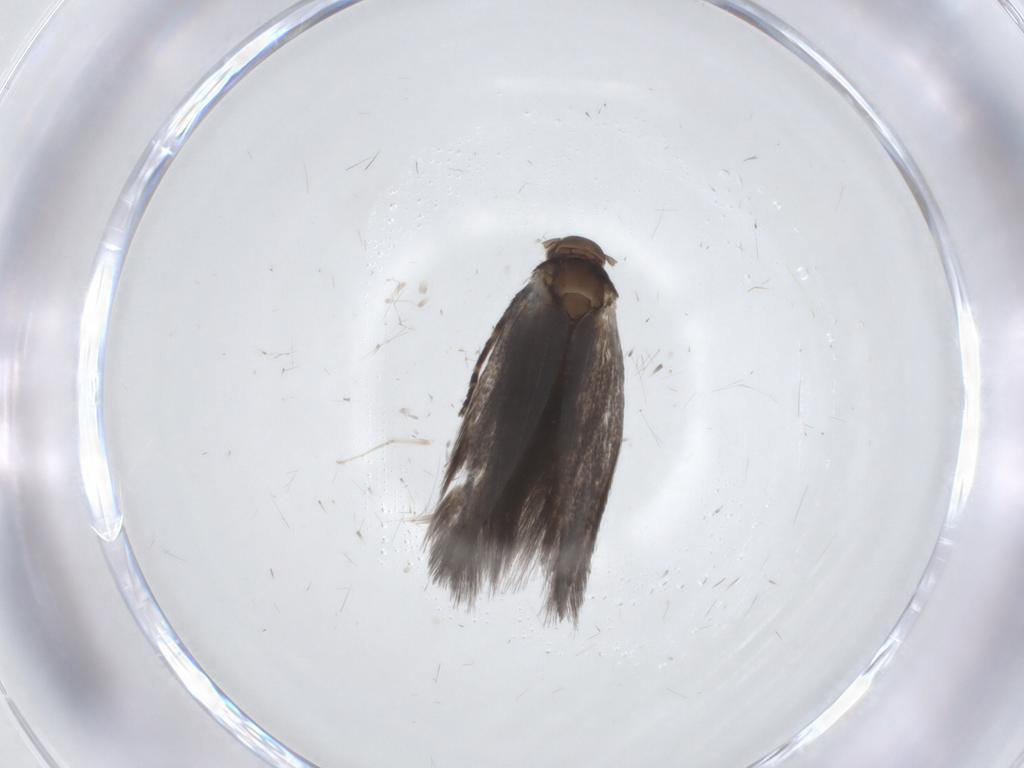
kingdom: Animalia
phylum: Arthropoda
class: Insecta
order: Lepidoptera
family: Elachistidae
